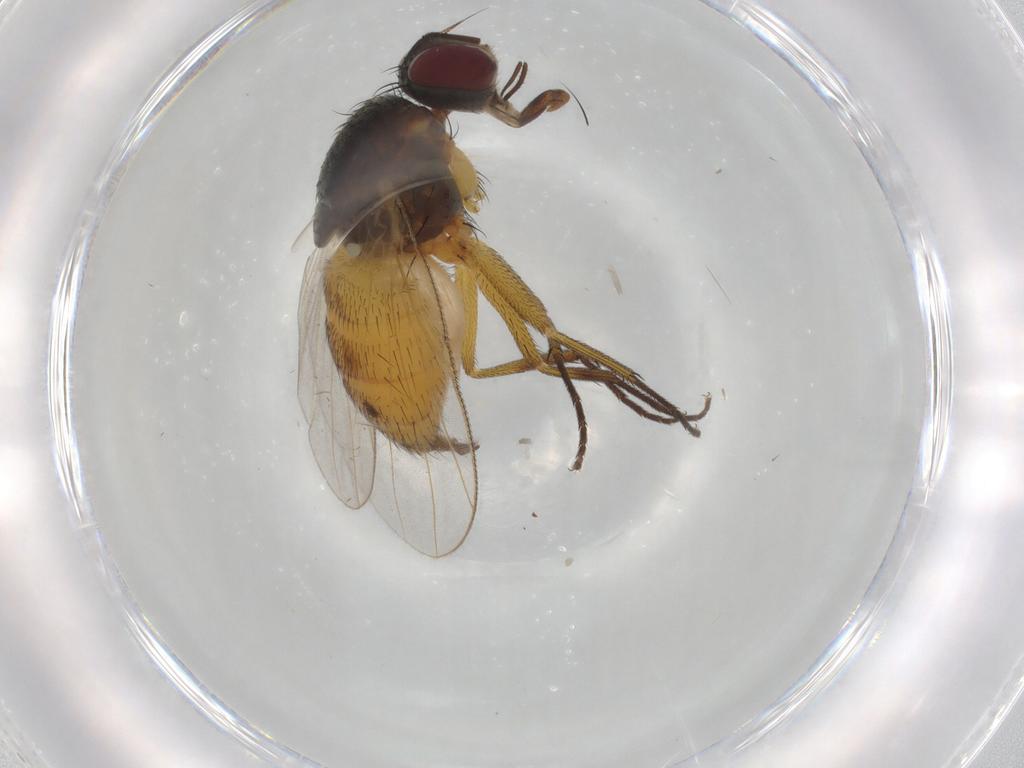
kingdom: Animalia
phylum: Arthropoda
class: Insecta
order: Diptera
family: Muscidae
